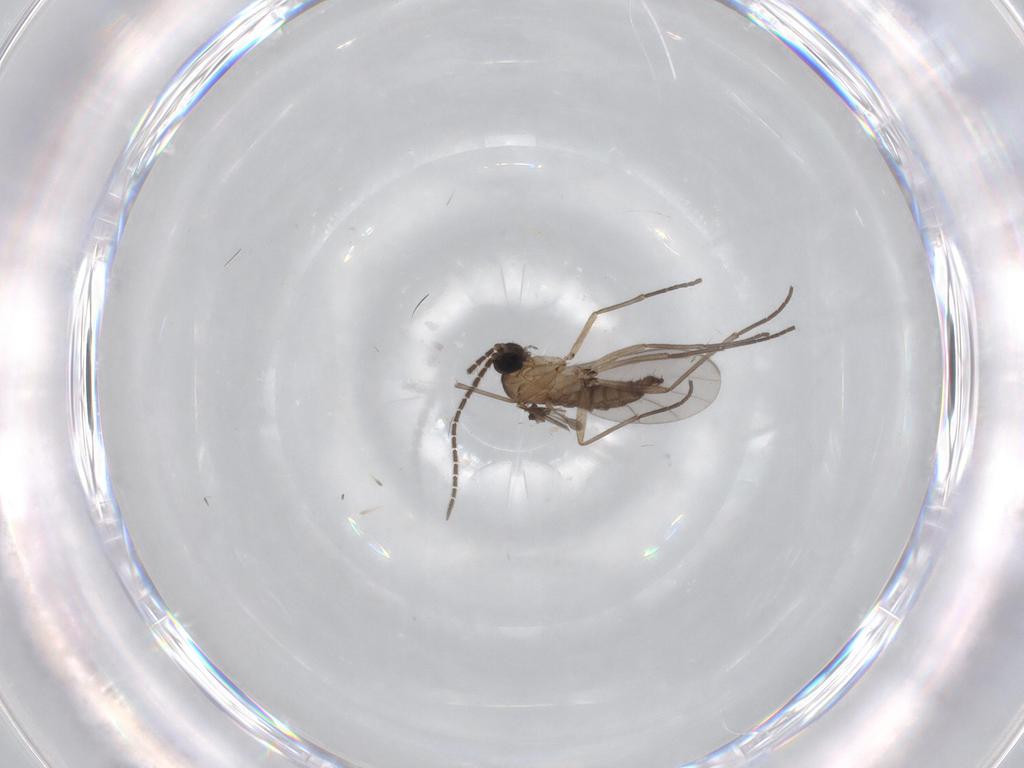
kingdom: Animalia
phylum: Arthropoda
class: Insecta
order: Diptera
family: Sciaridae
